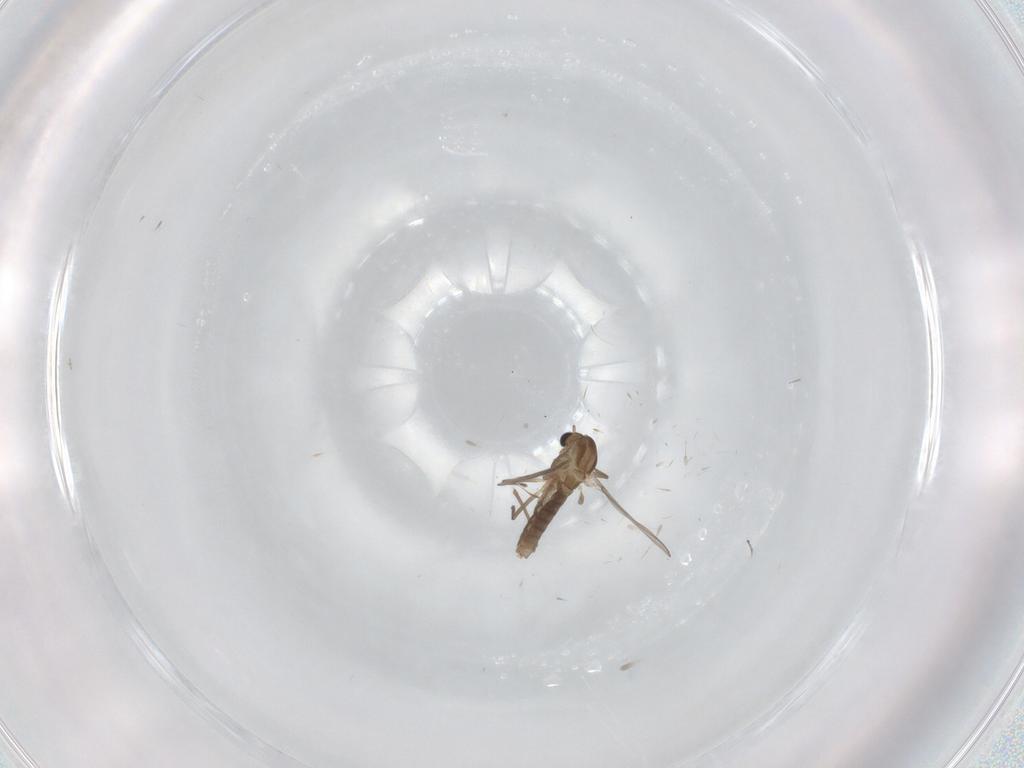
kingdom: Animalia
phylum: Arthropoda
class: Insecta
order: Diptera
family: Chironomidae
